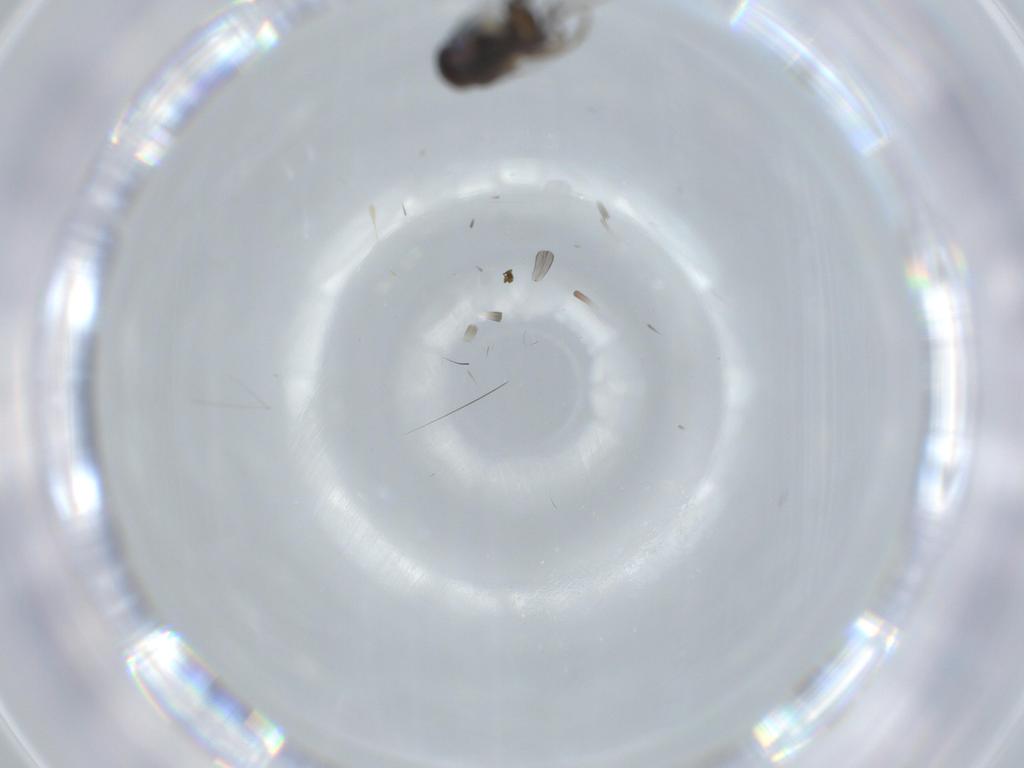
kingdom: Animalia
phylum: Arthropoda
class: Insecta
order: Diptera
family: Phoridae
